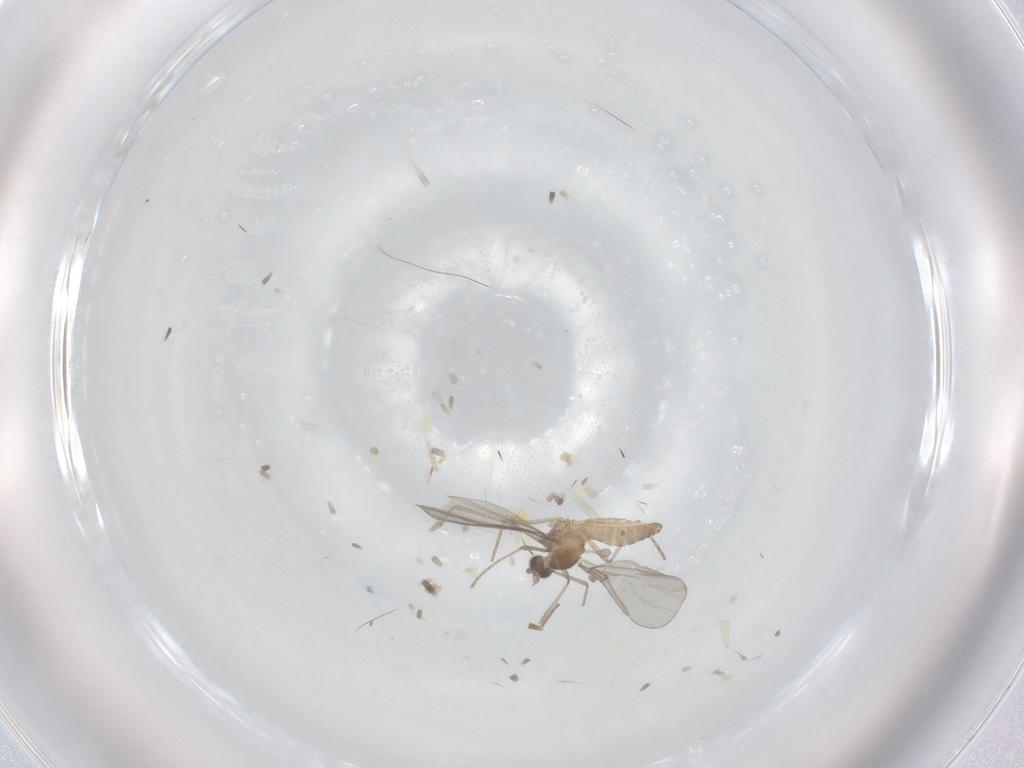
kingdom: Animalia
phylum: Arthropoda
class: Insecta
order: Diptera
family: Cecidomyiidae
